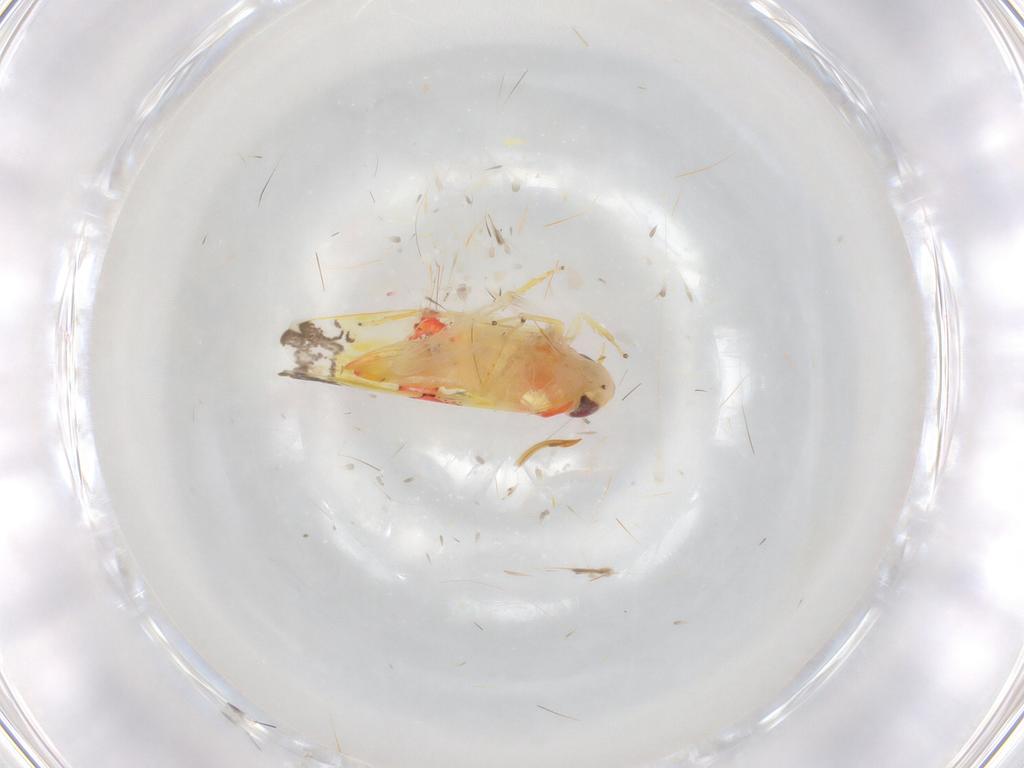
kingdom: Animalia
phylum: Arthropoda
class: Insecta
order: Hemiptera
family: Cicadellidae
